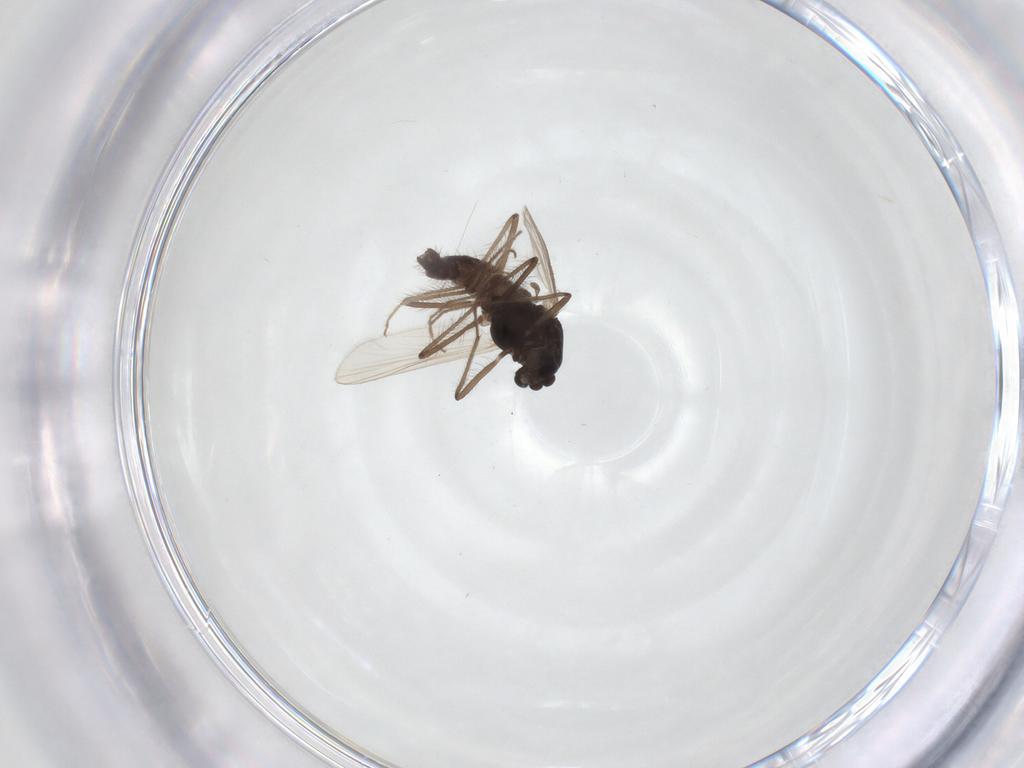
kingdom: Animalia
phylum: Arthropoda
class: Insecta
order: Diptera
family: Chironomidae
